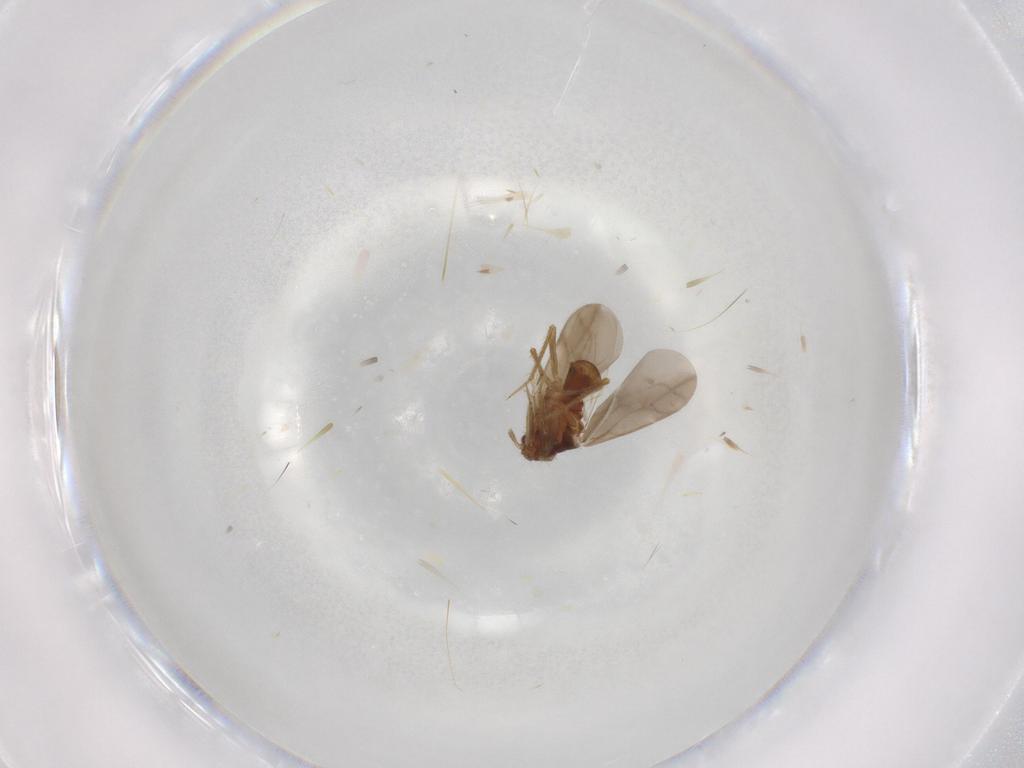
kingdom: Animalia
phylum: Arthropoda
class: Insecta
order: Hemiptera
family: Ceratocombidae
